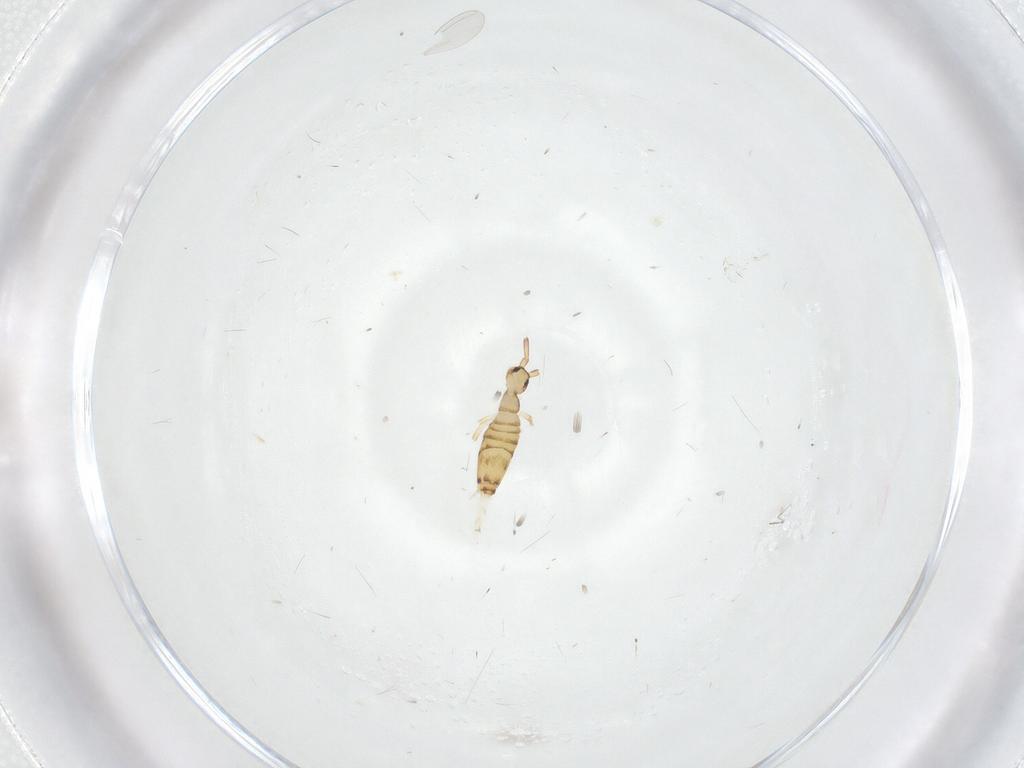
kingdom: Animalia
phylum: Arthropoda
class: Collembola
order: Entomobryomorpha
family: Entomobryidae
